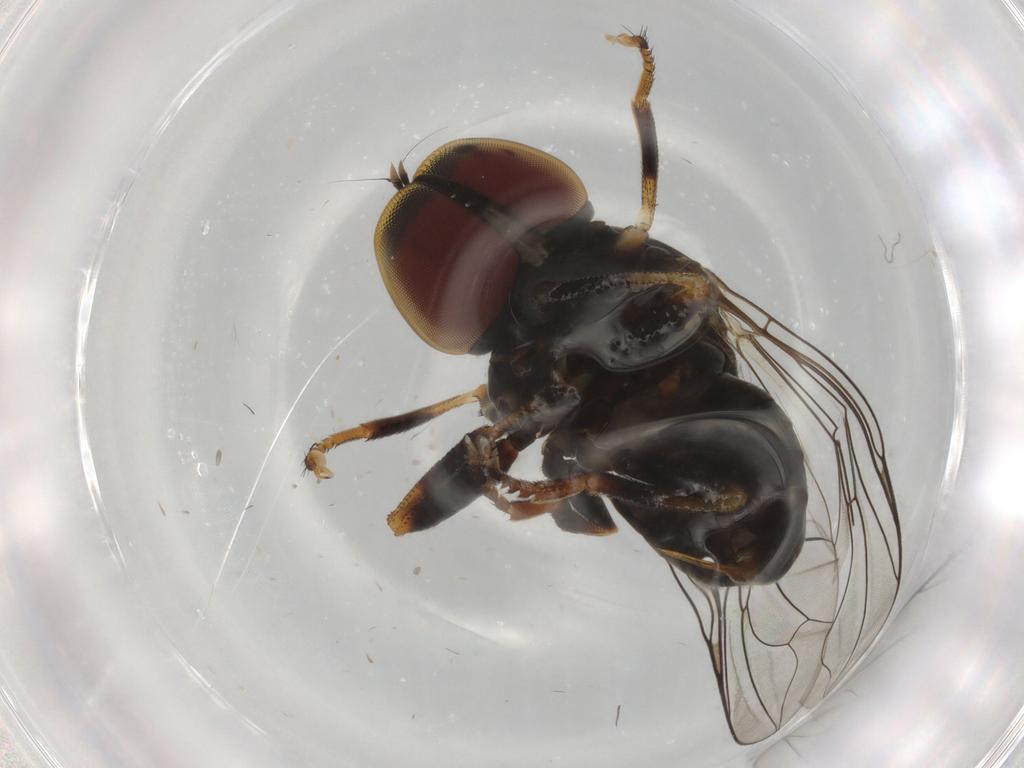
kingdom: Animalia
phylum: Arthropoda
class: Insecta
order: Diptera
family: Pipunculidae
